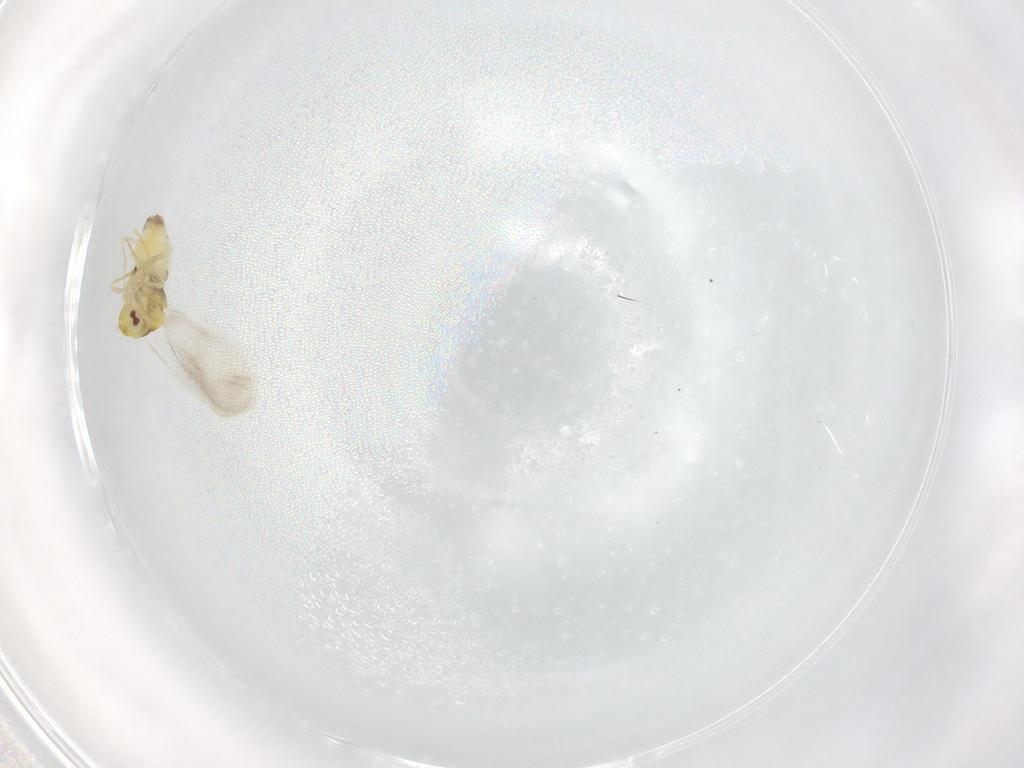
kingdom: Animalia
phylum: Arthropoda
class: Insecta
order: Hemiptera
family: Aleyrodidae
